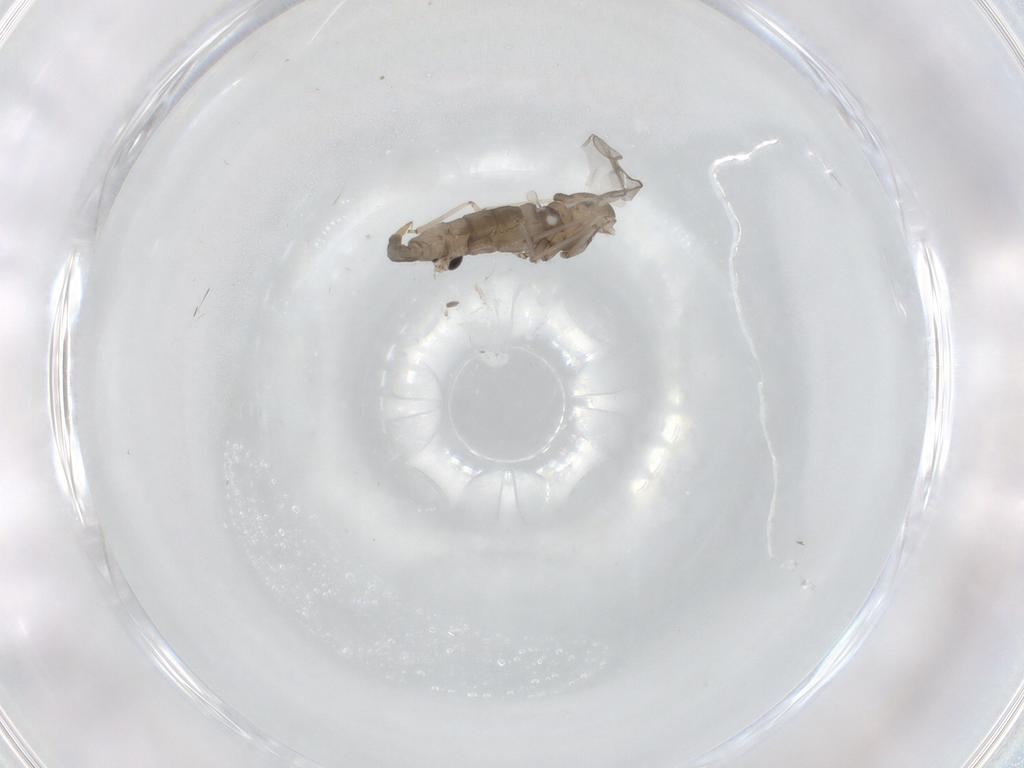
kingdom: Animalia
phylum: Arthropoda
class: Insecta
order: Diptera
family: Cecidomyiidae
